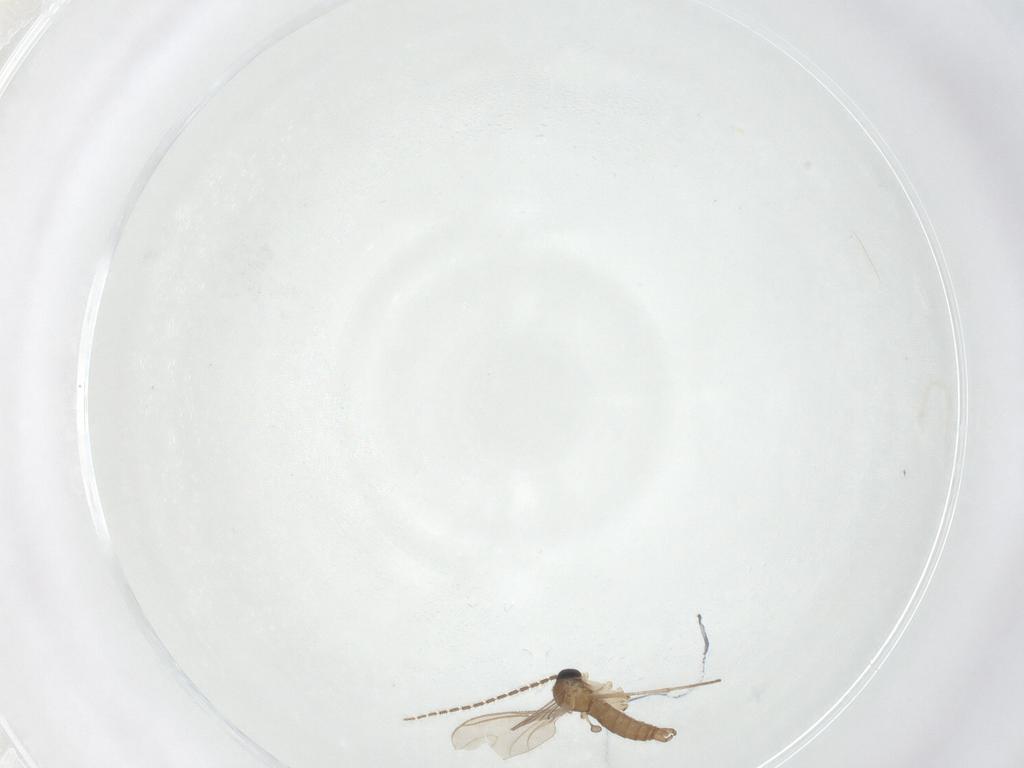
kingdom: Animalia
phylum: Arthropoda
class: Insecta
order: Diptera
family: Sciaridae
